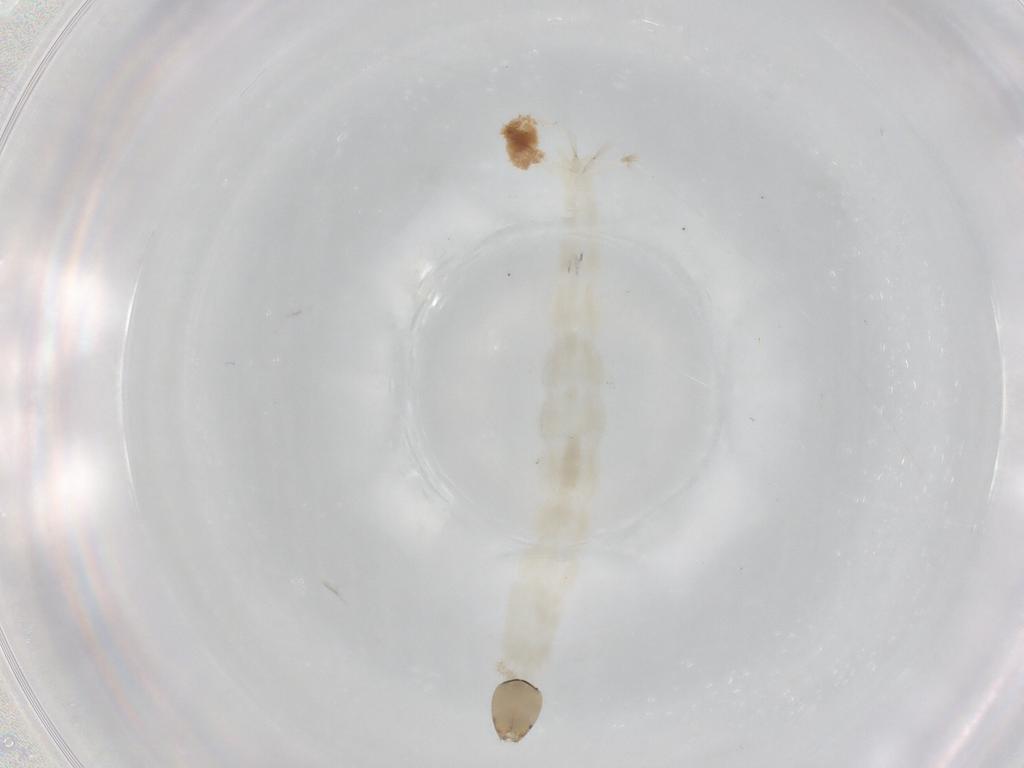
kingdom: Animalia
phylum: Arthropoda
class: Insecta
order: Diptera
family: Chironomidae
